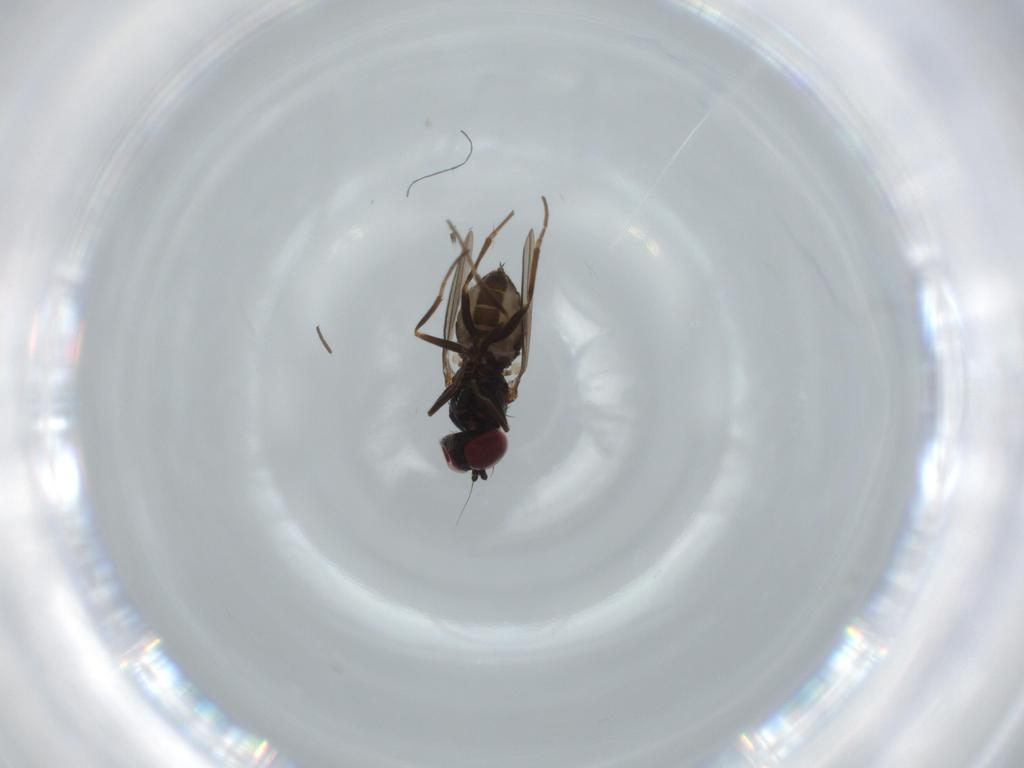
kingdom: Animalia
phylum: Arthropoda
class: Insecta
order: Diptera
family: Dolichopodidae
